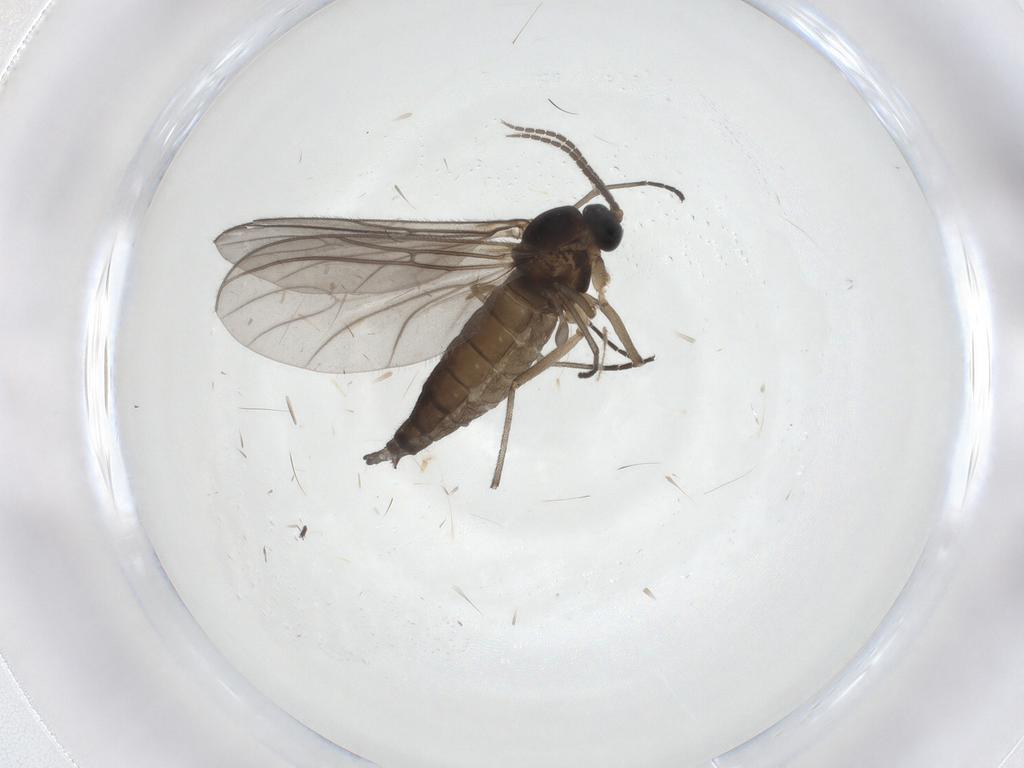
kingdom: Animalia
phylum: Arthropoda
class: Insecta
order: Diptera
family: Sciaridae
